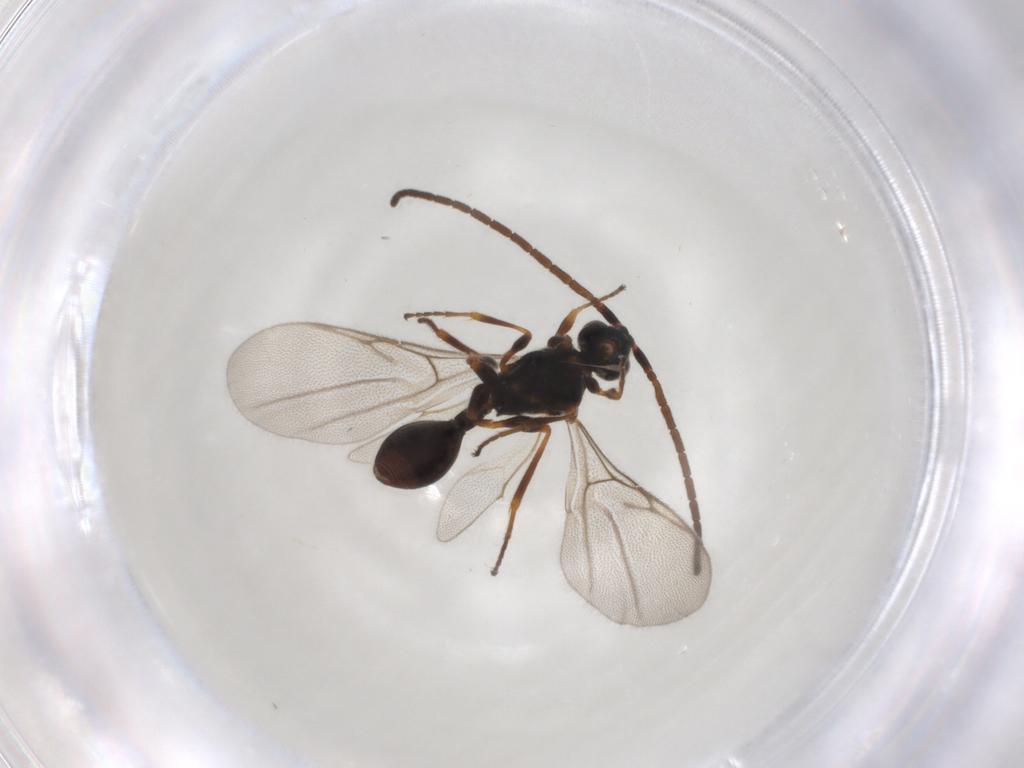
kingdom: Animalia
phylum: Arthropoda
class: Insecta
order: Hymenoptera
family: Diapriidae
